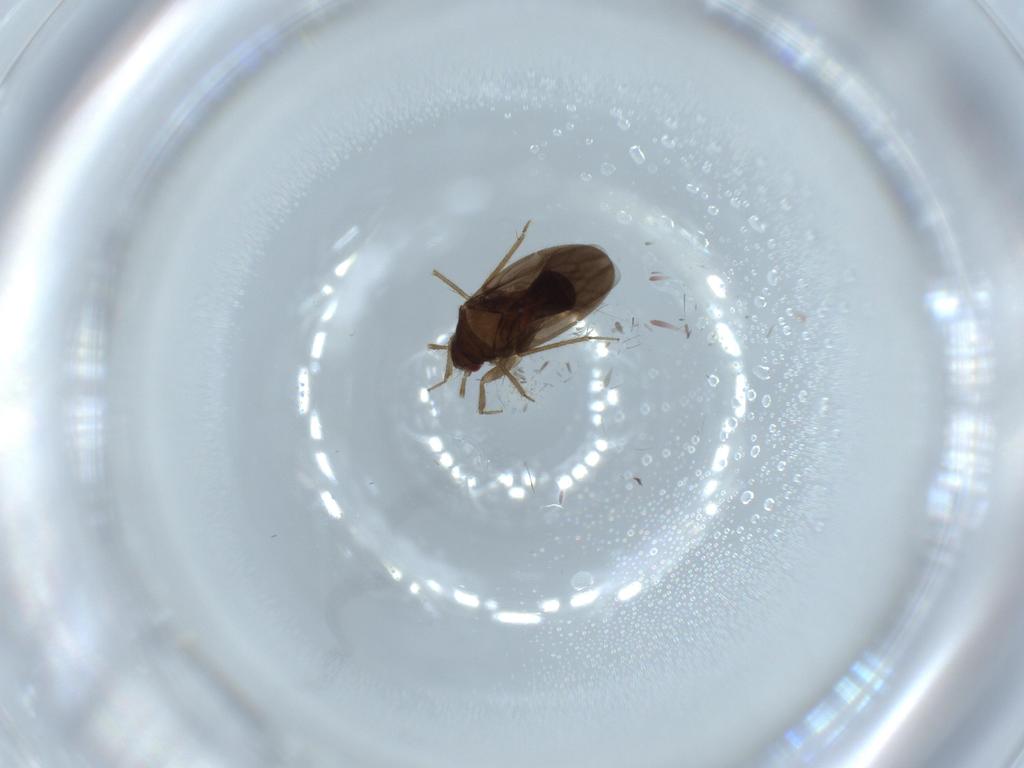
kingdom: Animalia
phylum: Arthropoda
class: Insecta
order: Hemiptera
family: Ceratocombidae
